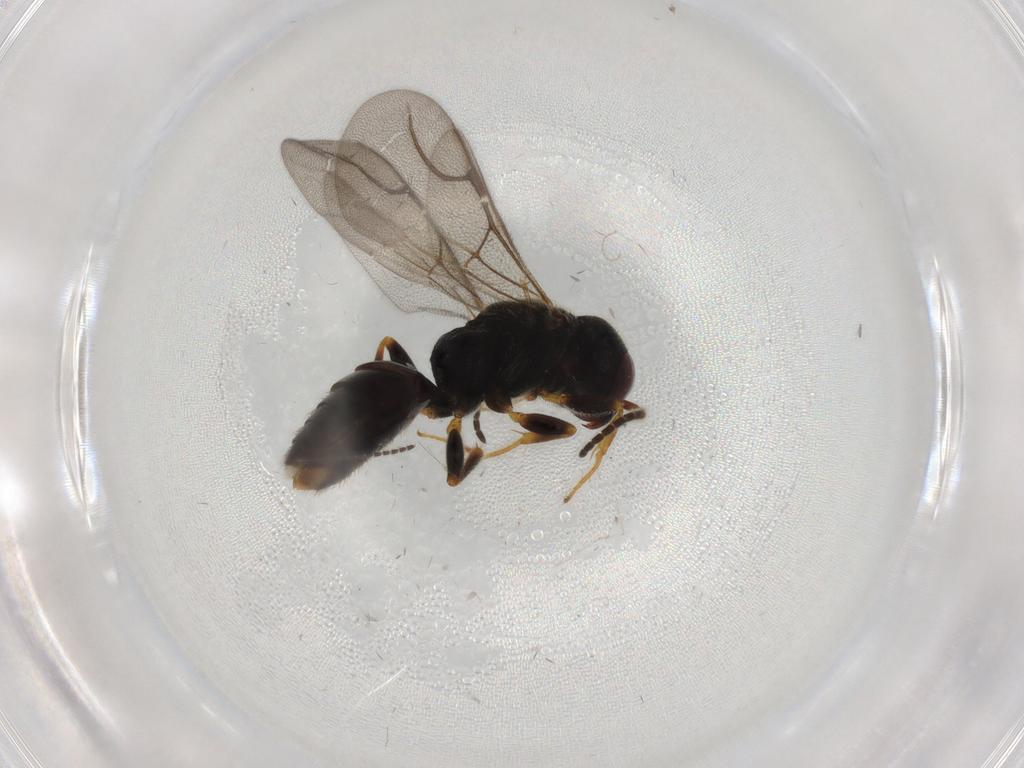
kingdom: Animalia
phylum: Arthropoda
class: Insecta
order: Hymenoptera
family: Bethylidae
